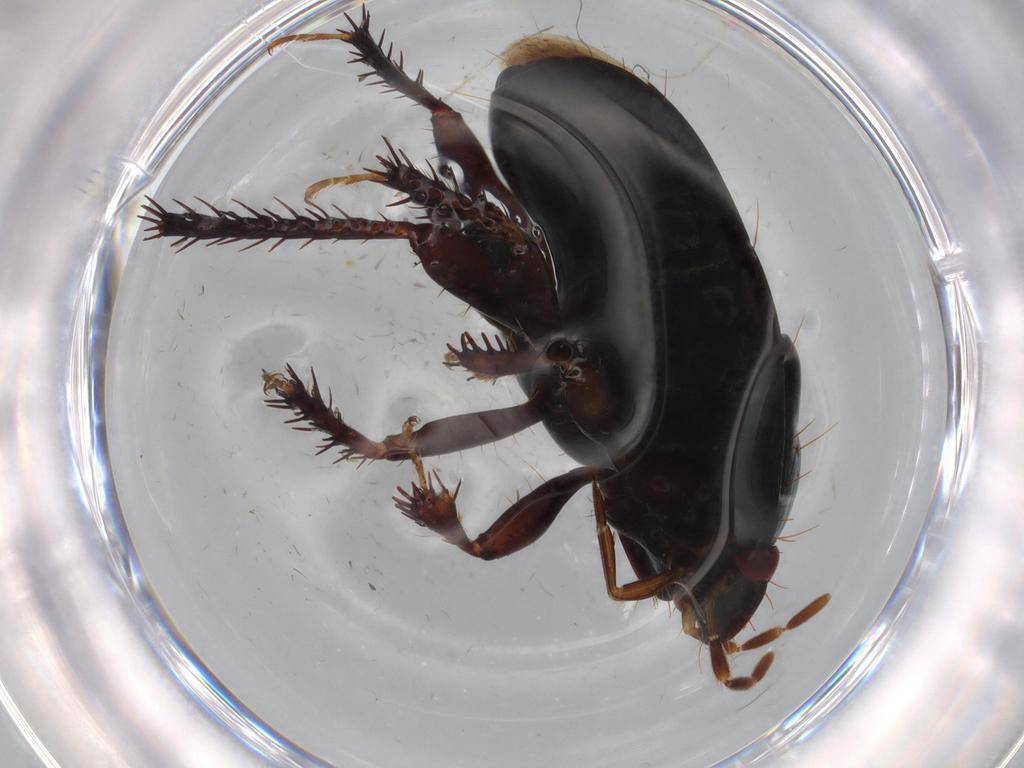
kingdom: Animalia
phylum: Arthropoda
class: Insecta
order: Hemiptera
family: Cydnidae
